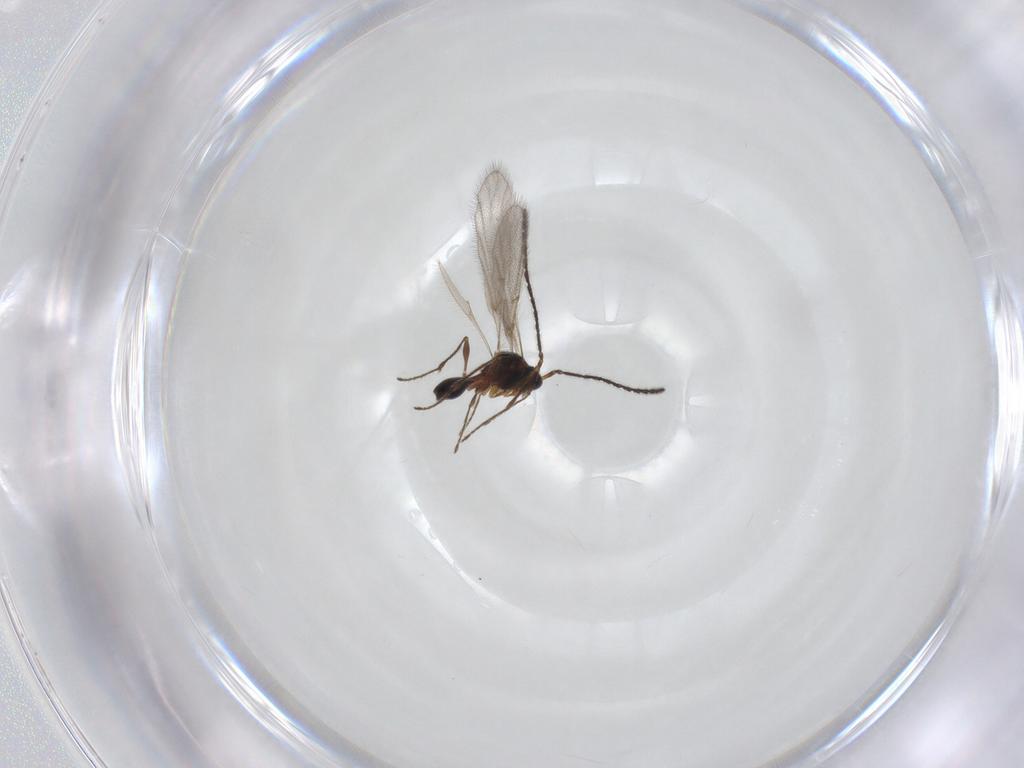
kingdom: Animalia
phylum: Arthropoda
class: Insecta
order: Hymenoptera
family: Diapriidae
